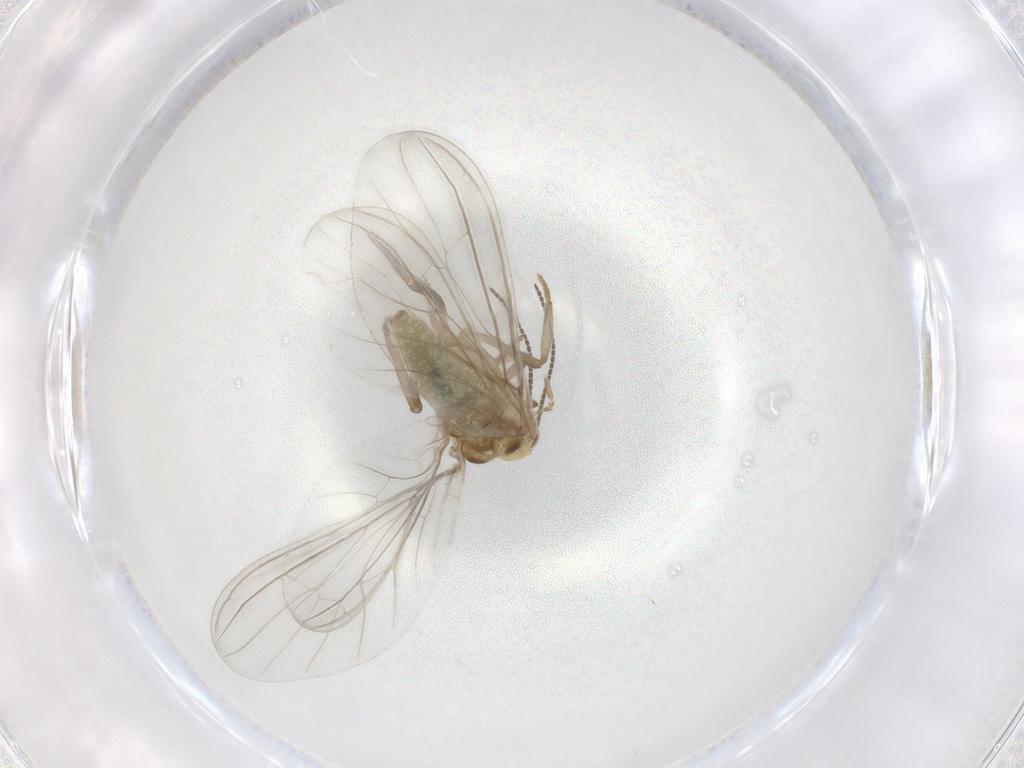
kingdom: Animalia
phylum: Arthropoda
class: Insecta
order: Neuroptera
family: Coniopterygidae
